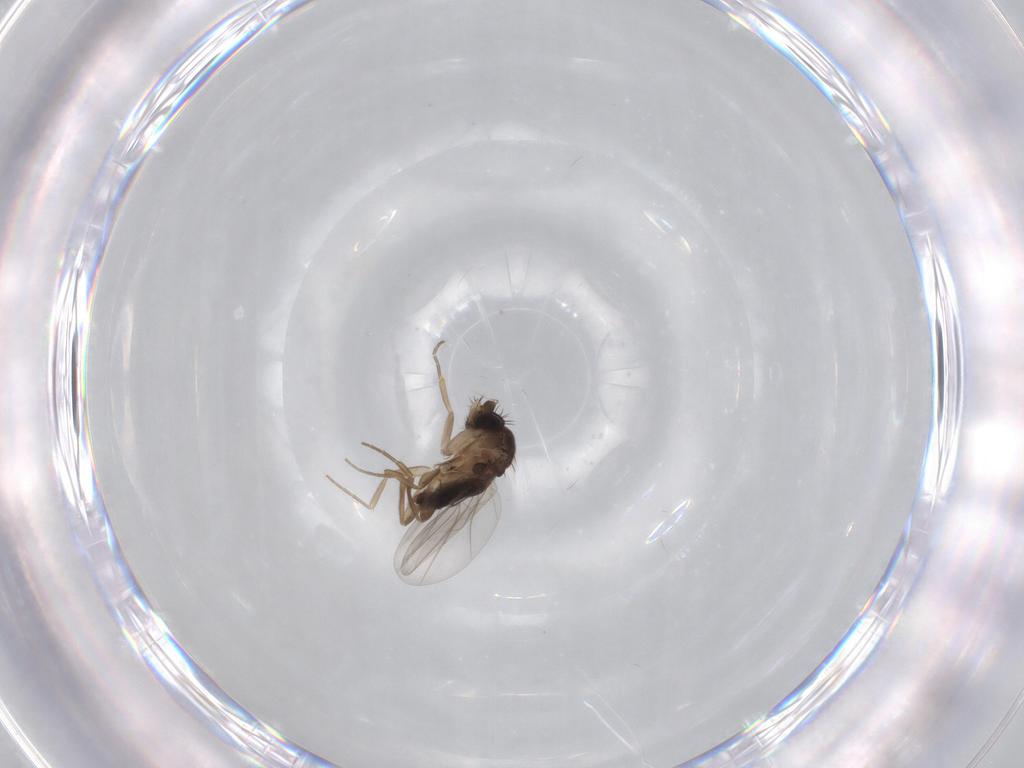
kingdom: Animalia
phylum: Arthropoda
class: Insecta
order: Diptera
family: Phoridae
